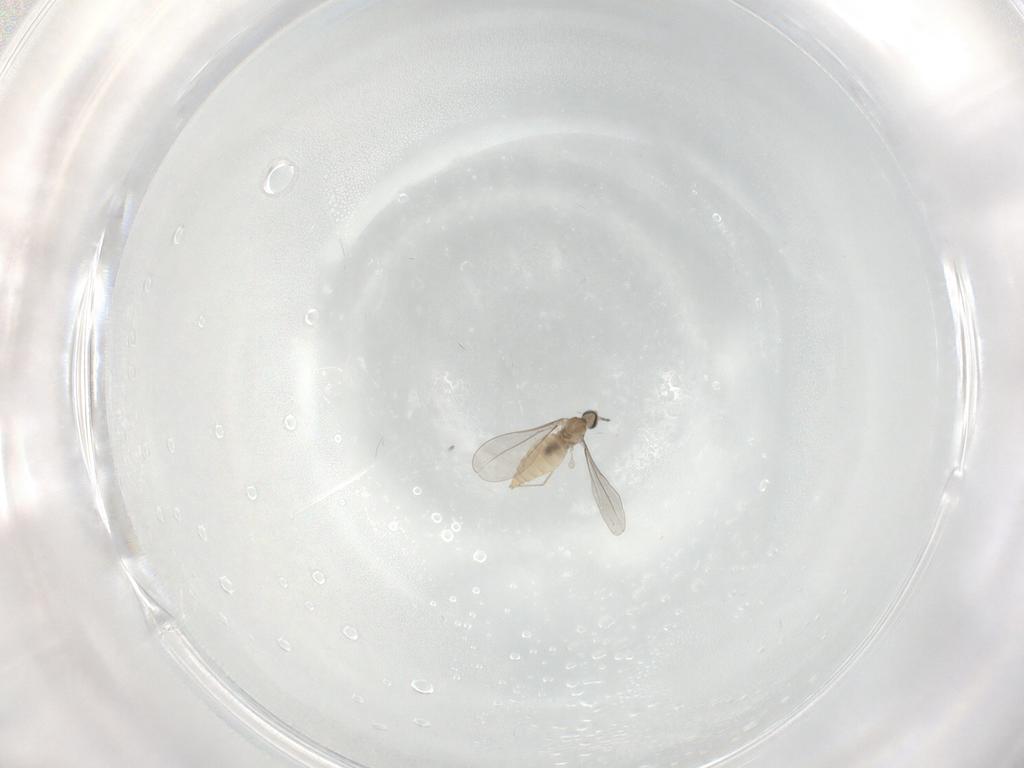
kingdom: Animalia
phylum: Arthropoda
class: Insecta
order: Diptera
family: Cecidomyiidae
